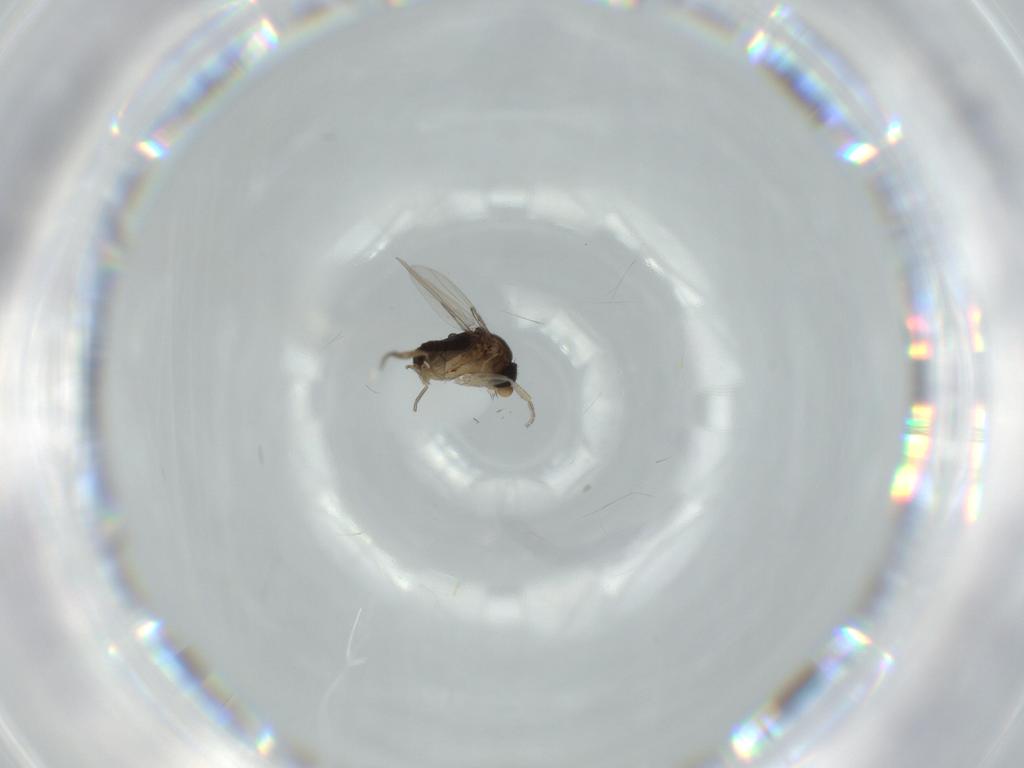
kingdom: Animalia
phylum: Arthropoda
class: Insecta
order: Diptera
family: Phoridae
